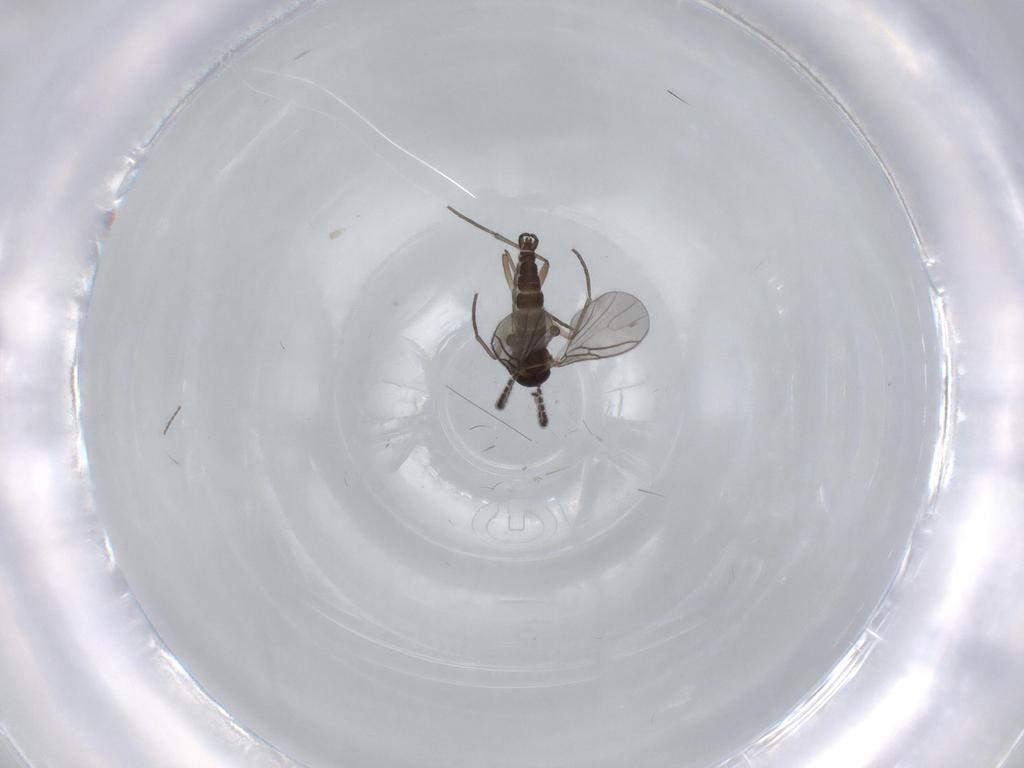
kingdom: Animalia
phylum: Arthropoda
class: Insecta
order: Diptera
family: Sciaridae
